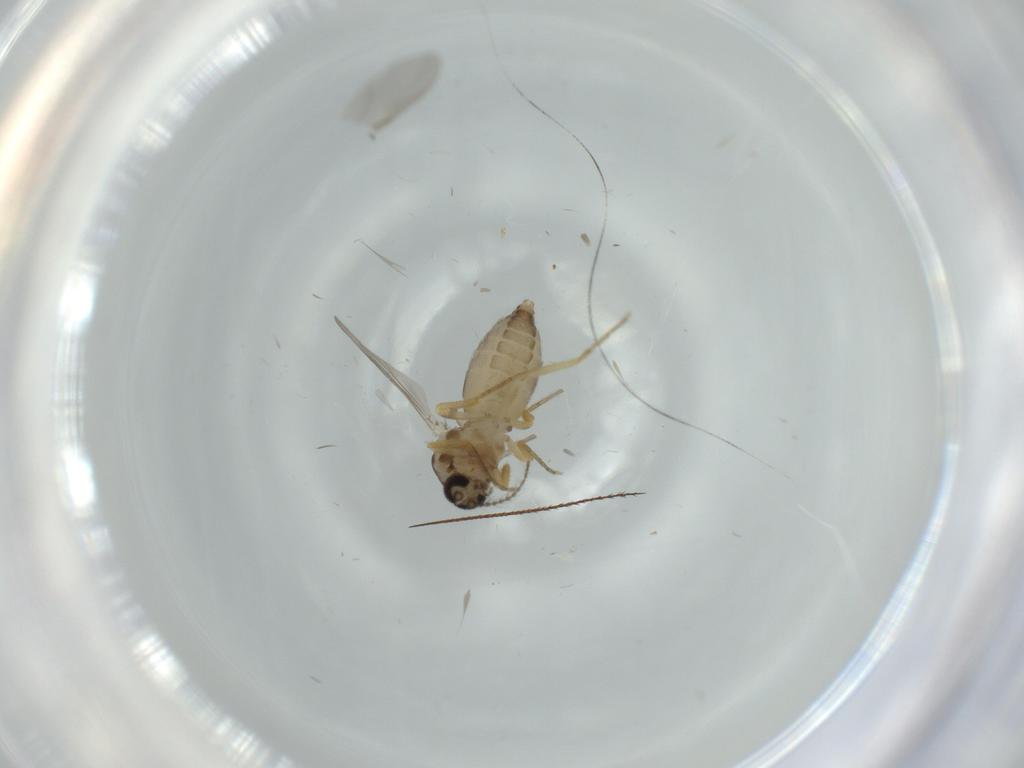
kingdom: Animalia
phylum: Arthropoda
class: Insecta
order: Diptera
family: Ceratopogonidae
